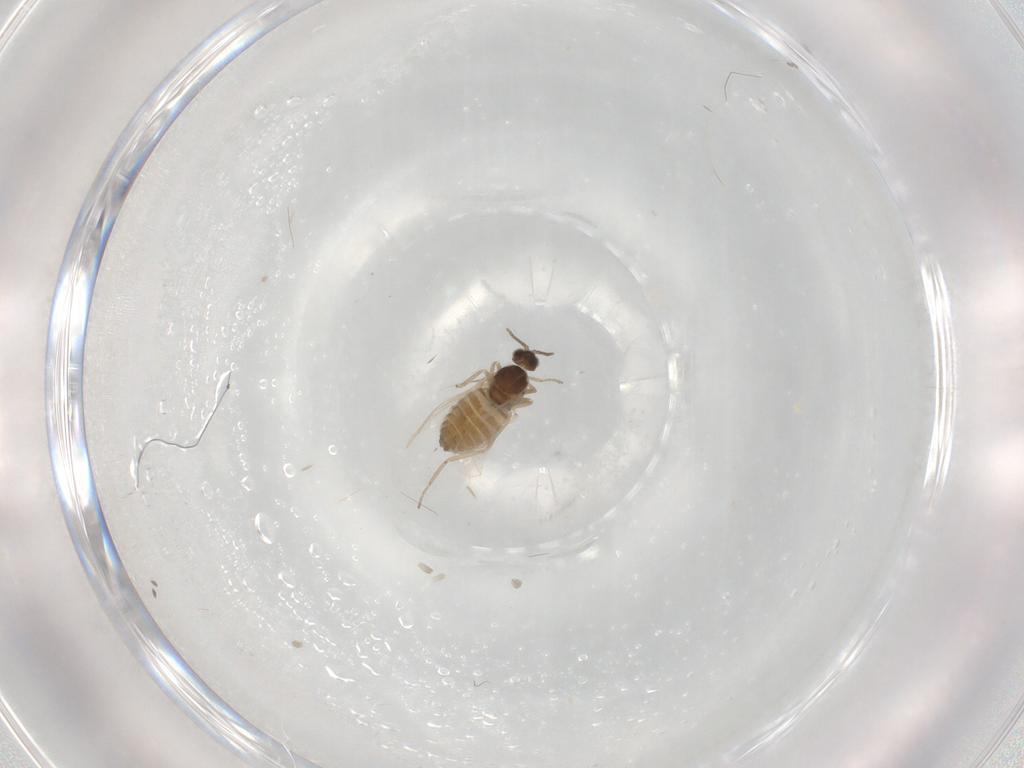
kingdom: Animalia
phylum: Arthropoda
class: Insecta
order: Diptera
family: Cecidomyiidae
